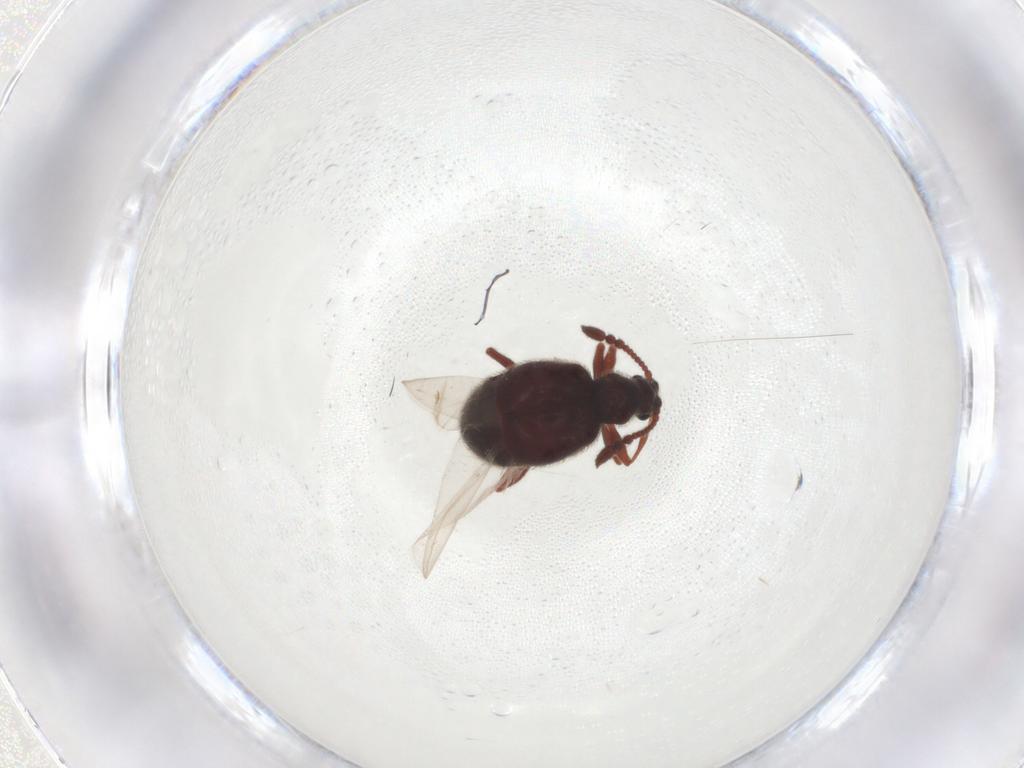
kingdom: Animalia
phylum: Arthropoda
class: Insecta
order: Coleoptera
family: Staphylinidae
